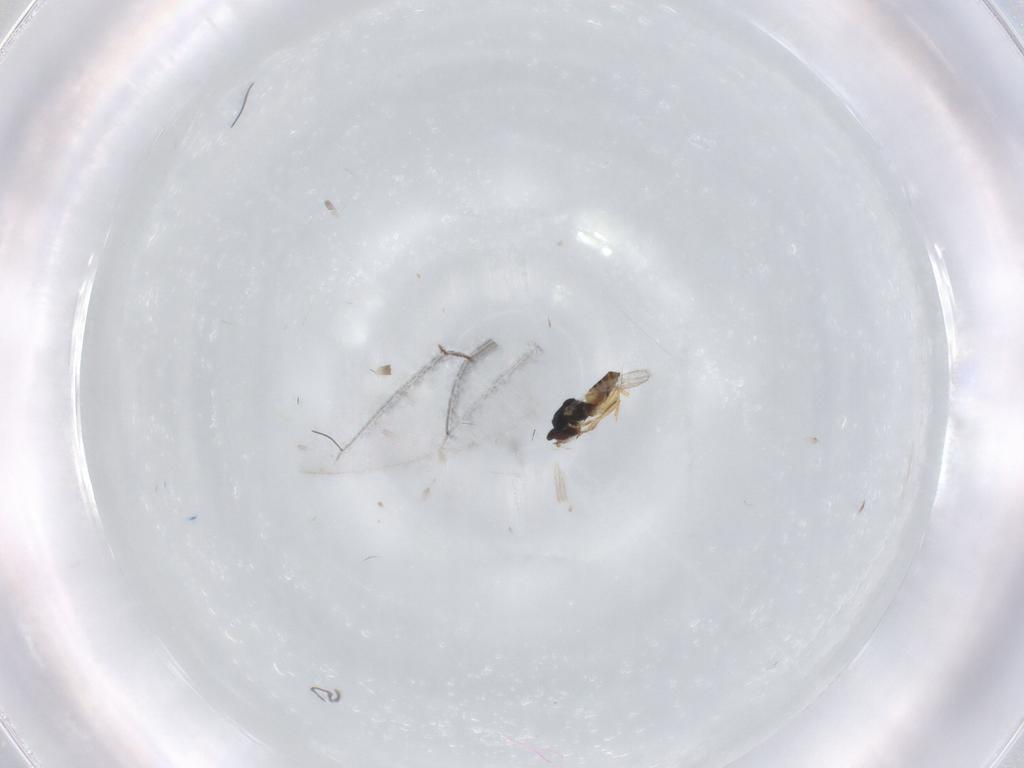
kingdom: Animalia
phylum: Arthropoda
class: Insecta
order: Hymenoptera
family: Eulophidae
